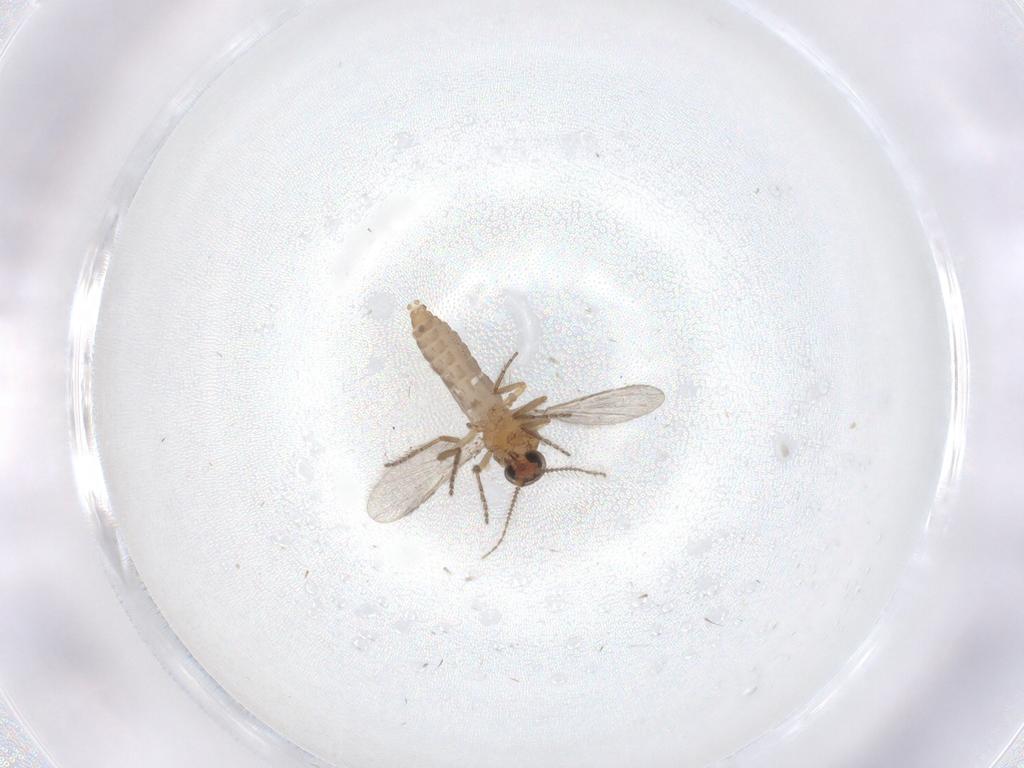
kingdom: Animalia
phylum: Arthropoda
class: Insecta
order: Diptera
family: Ceratopogonidae
